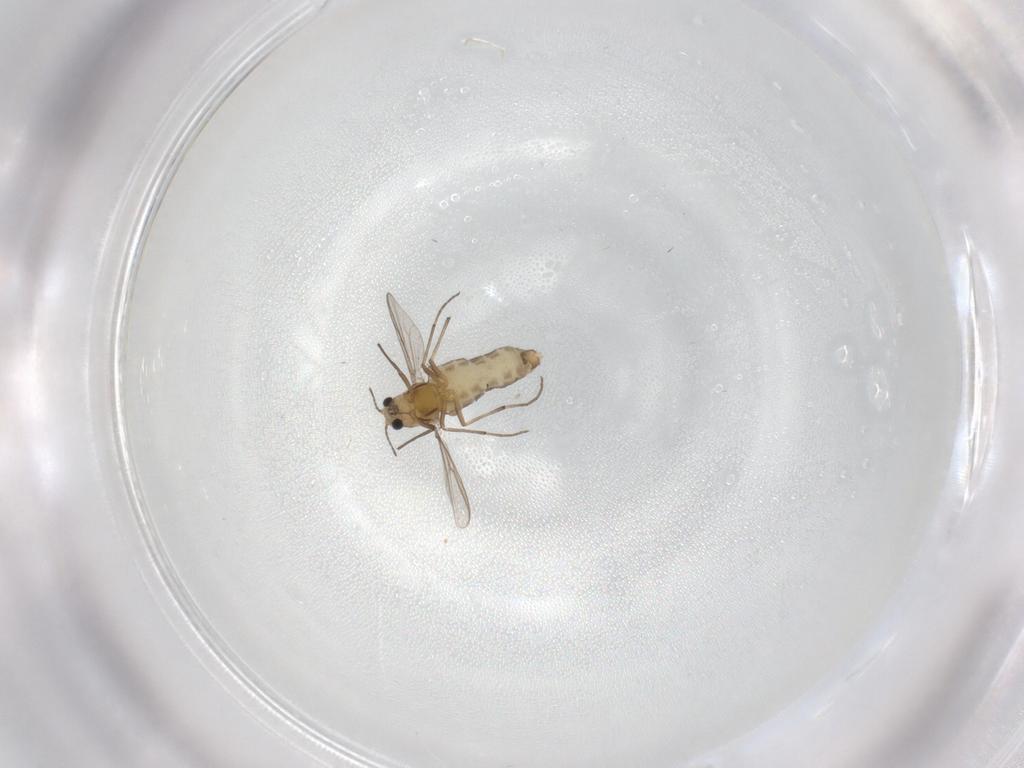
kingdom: Animalia
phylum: Arthropoda
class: Insecta
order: Diptera
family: Chironomidae
